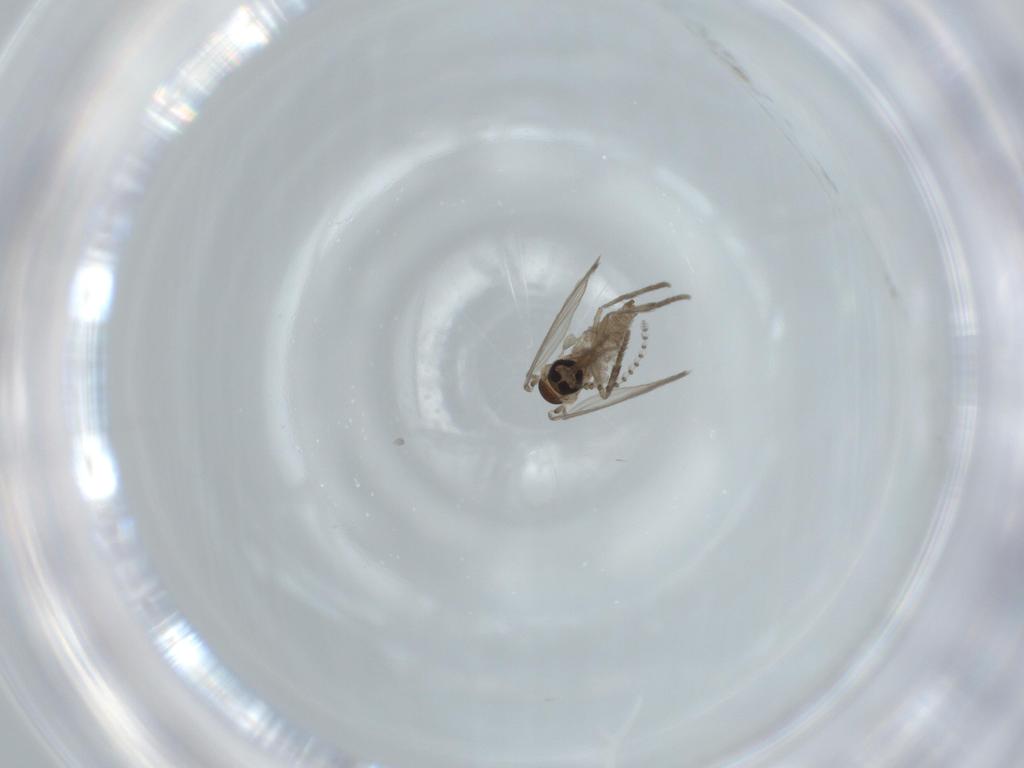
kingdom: Animalia
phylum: Arthropoda
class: Insecta
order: Diptera
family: Psychodidae
